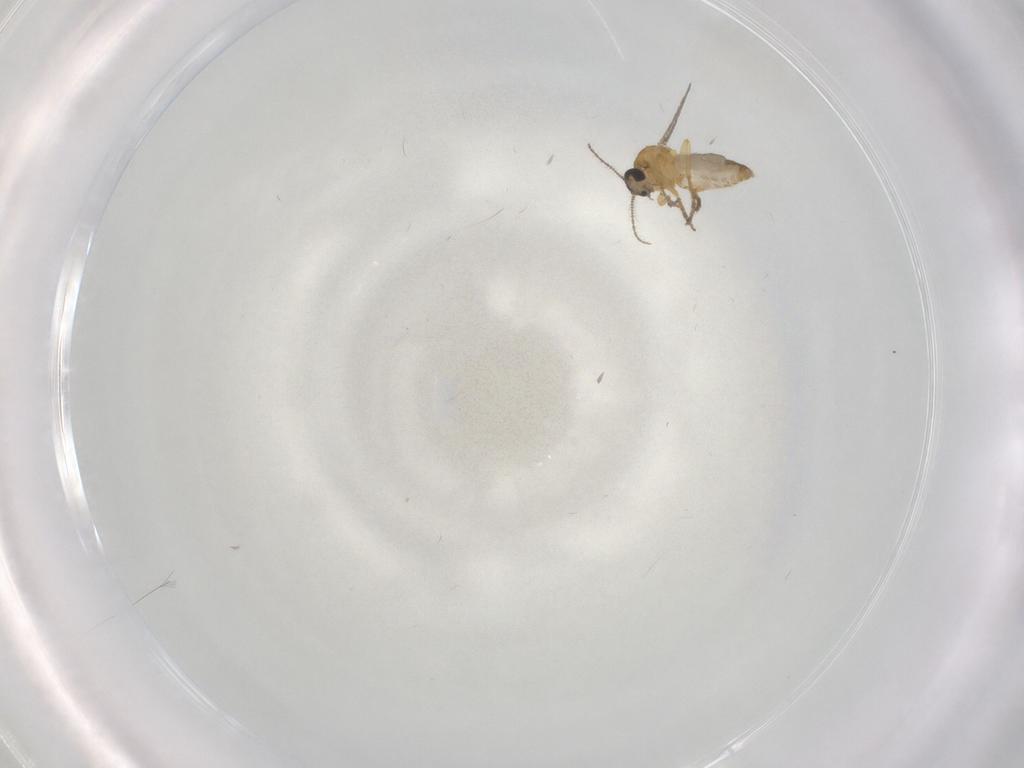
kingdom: Animalia
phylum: Arthropoda
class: Insecta
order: Diptera
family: Ceratopogonidae
